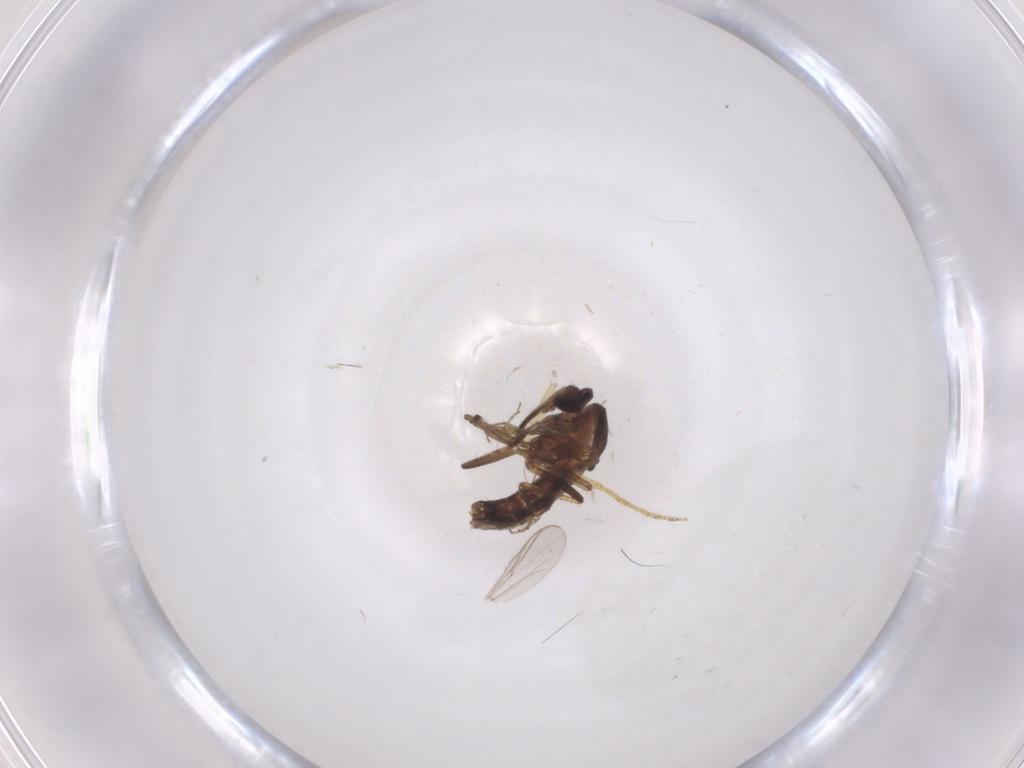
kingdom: Animalia
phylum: Arthropoda
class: Insecta
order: Diptera
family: Ceratopogonidae
